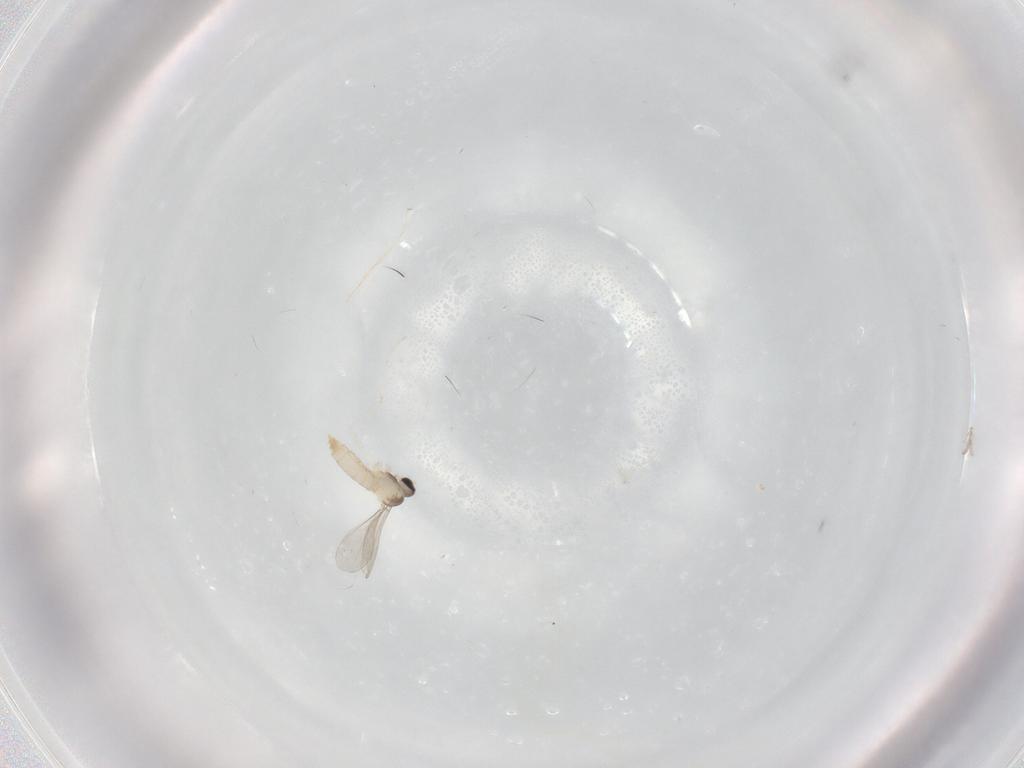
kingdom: Animalia
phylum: Arthropoda
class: Insecta
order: Diptera
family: Cecidomyiidae
